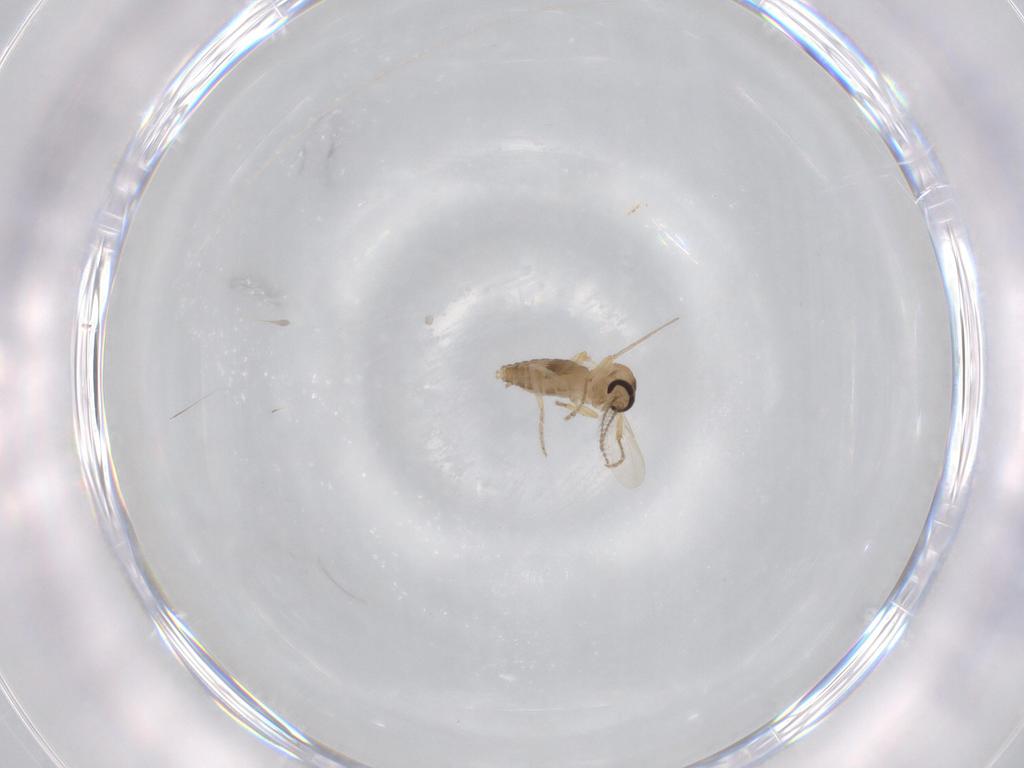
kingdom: Animalia
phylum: Arthropoda
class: Insecta
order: Diptera
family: Ceratopogonidae
